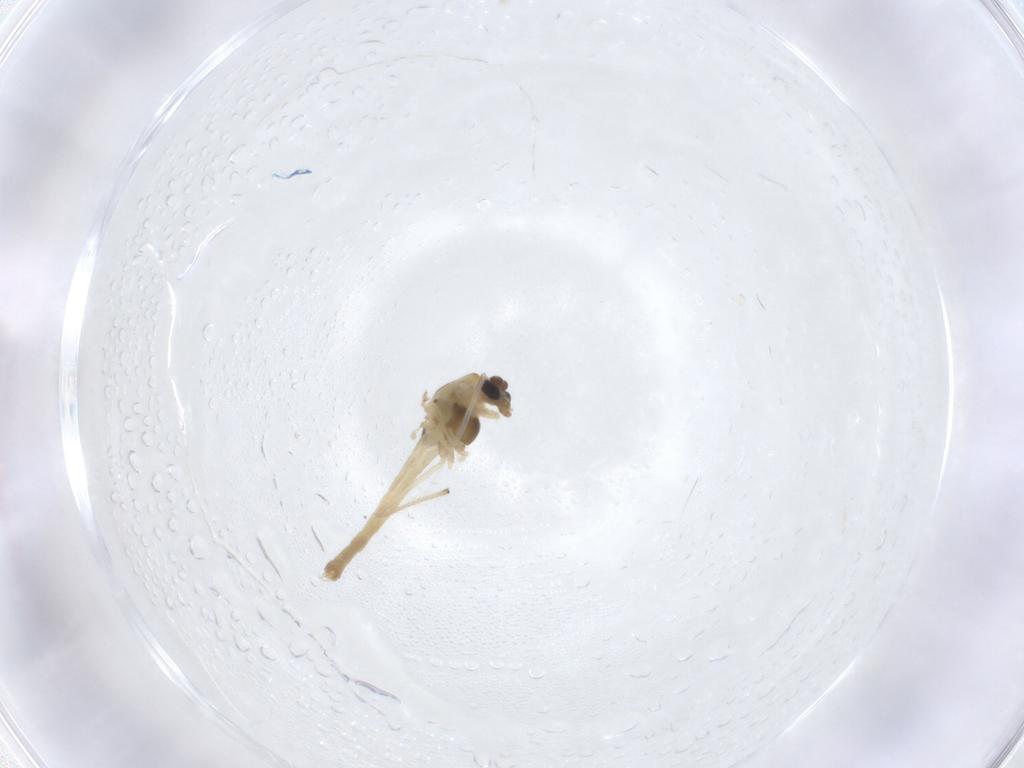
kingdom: Animalia
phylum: Arthropoda
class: Insecta
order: Diptera
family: Chironomidae
